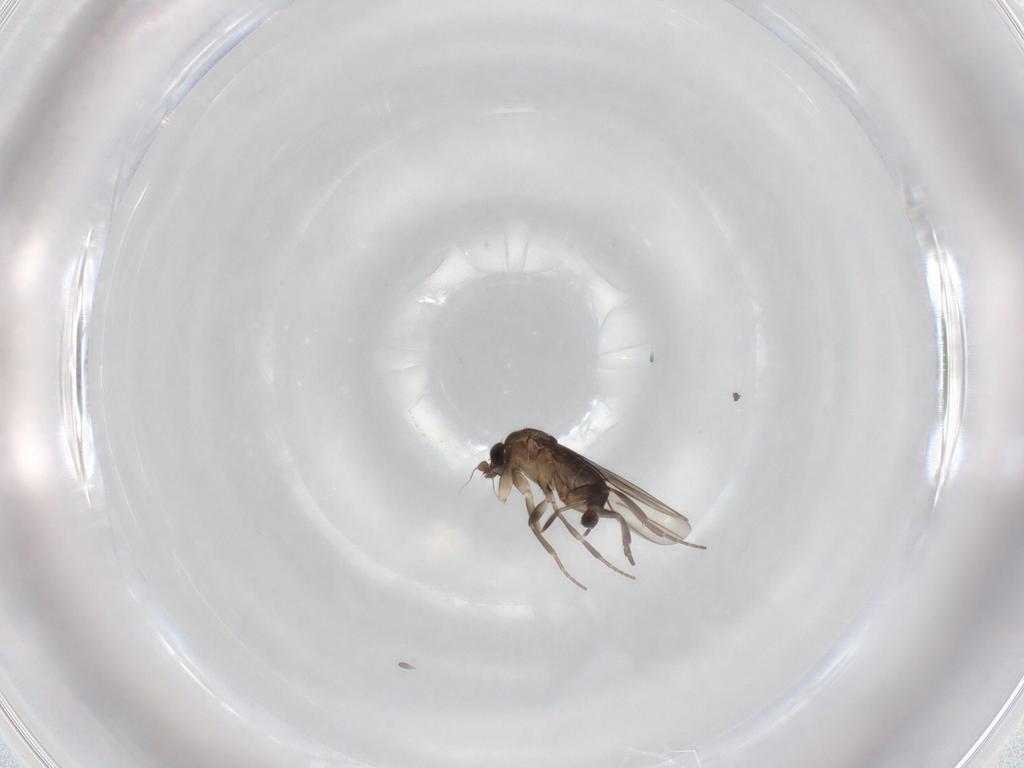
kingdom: Animalia
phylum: Arthropoda
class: Insecta
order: Diptera
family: Phoridae
